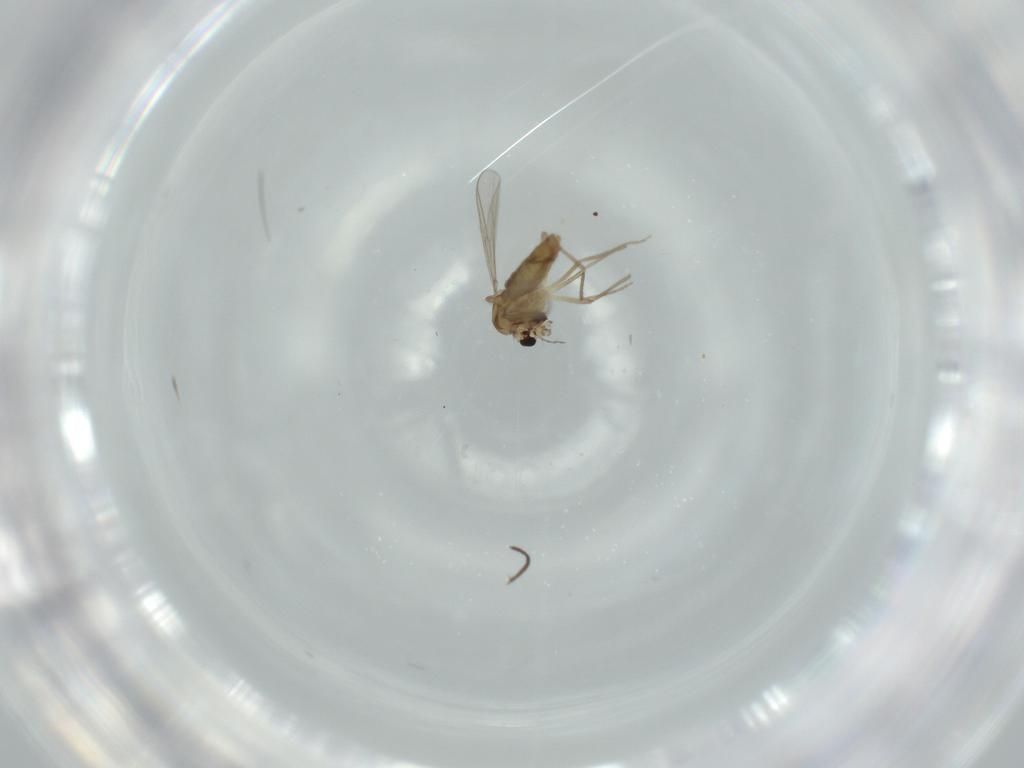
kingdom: Animalia
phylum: Arthropoda
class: Insecta
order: Diptera
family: Chironomidae
